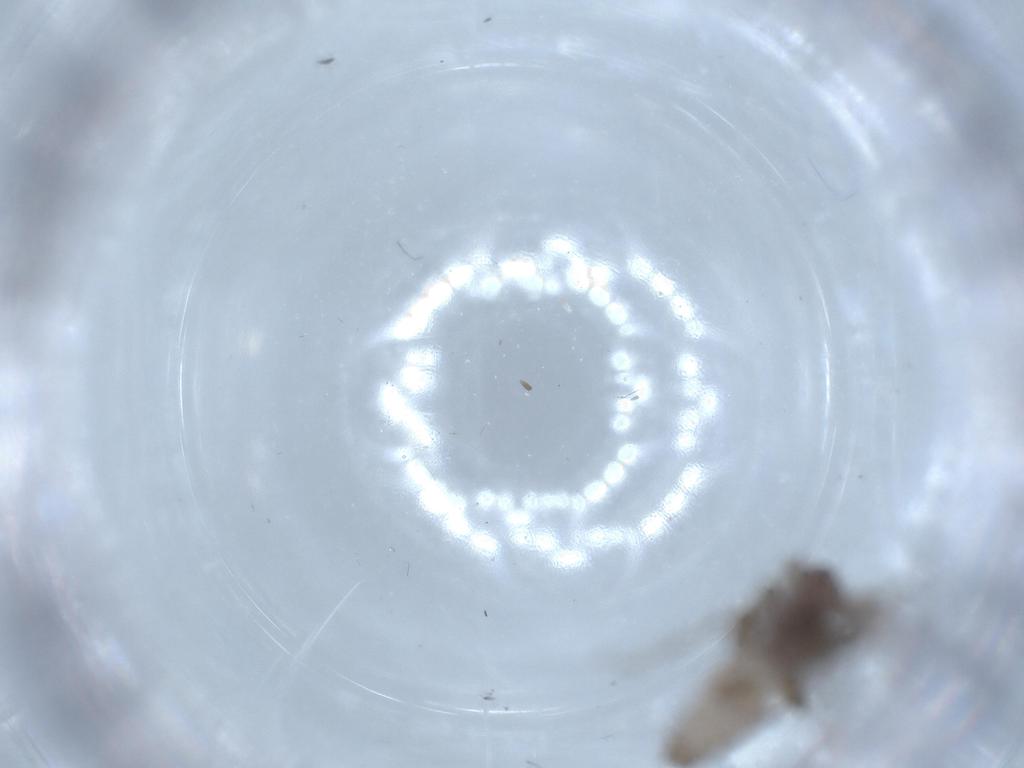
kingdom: Animalia
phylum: Arthropoda
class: Insecta
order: Psocodea
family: Lepidopsocidae
